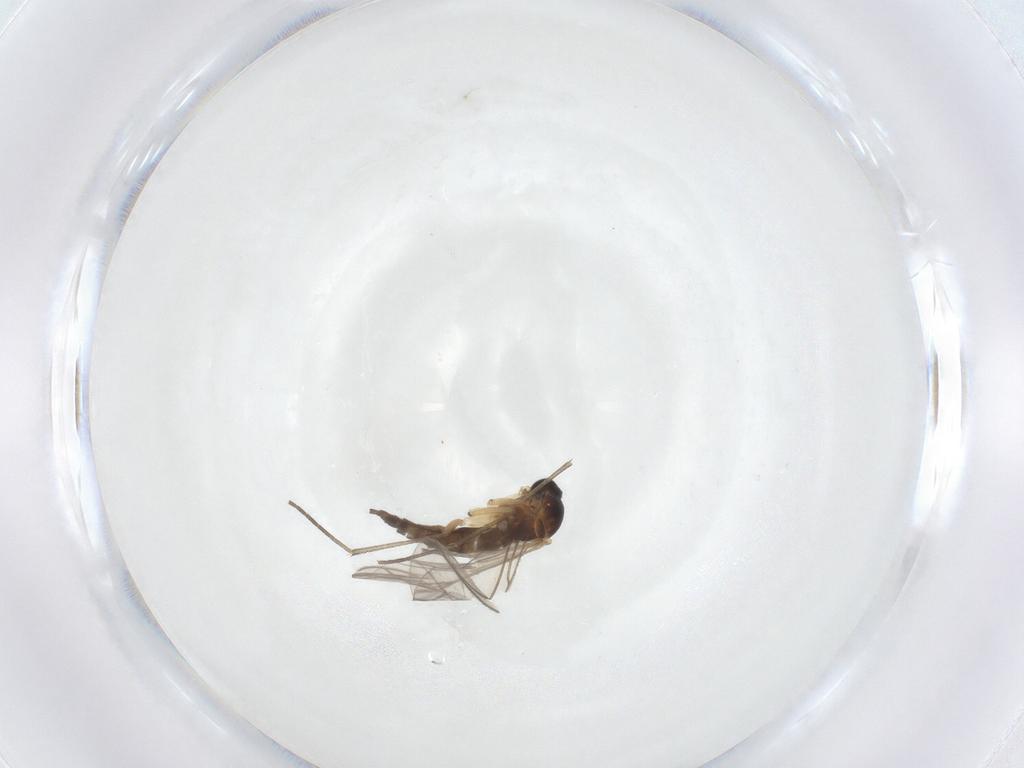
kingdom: Animalia
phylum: Arthropoda
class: Insecta
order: Diptera
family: Sciaridae
